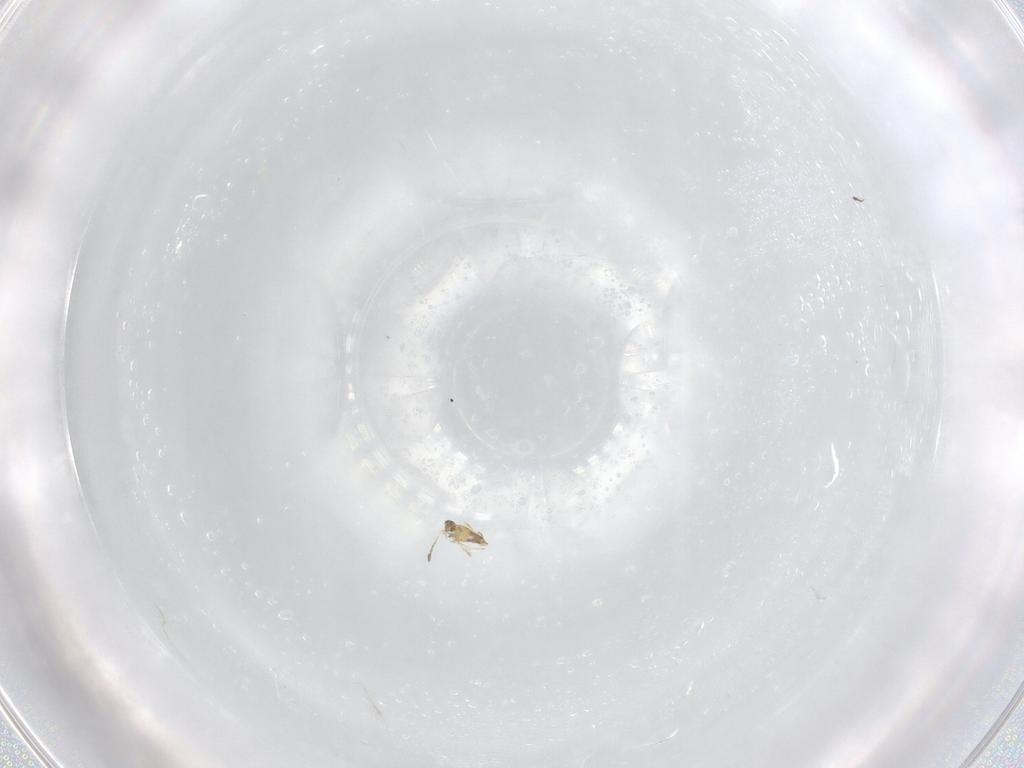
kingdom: Animalia
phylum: Arthropoda
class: Insecta
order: Hymenoptera
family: Mymaridae
